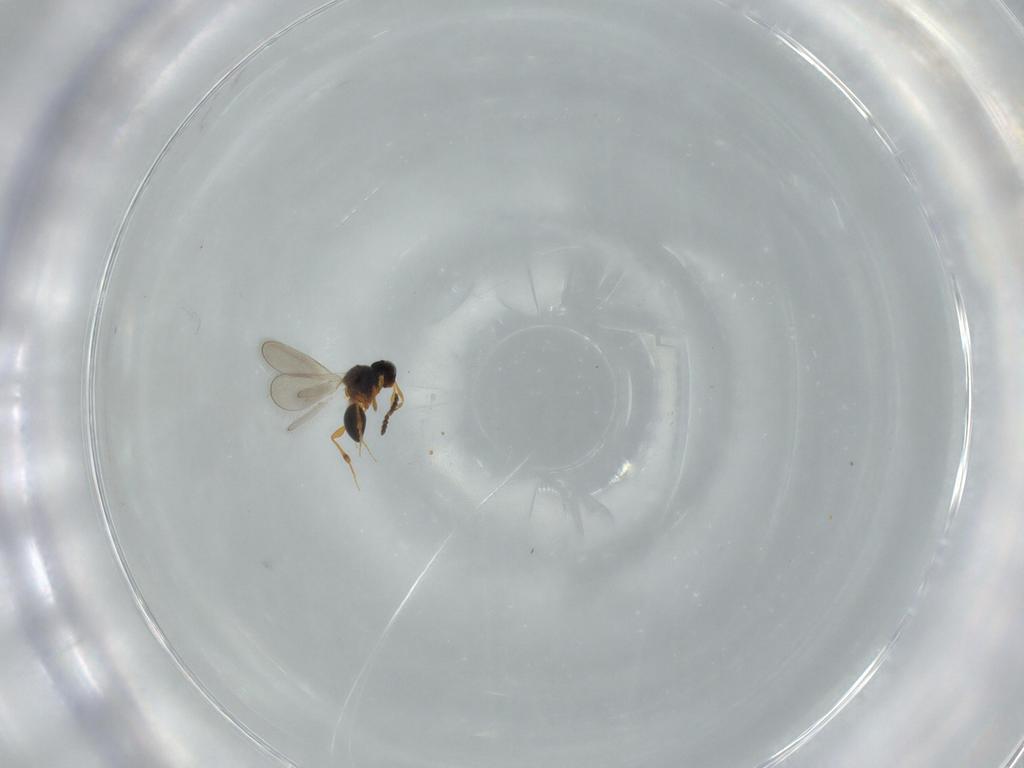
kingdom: Animalia
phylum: Arthropoda
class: Insecta
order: Hymenoptera
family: Platygastridae
